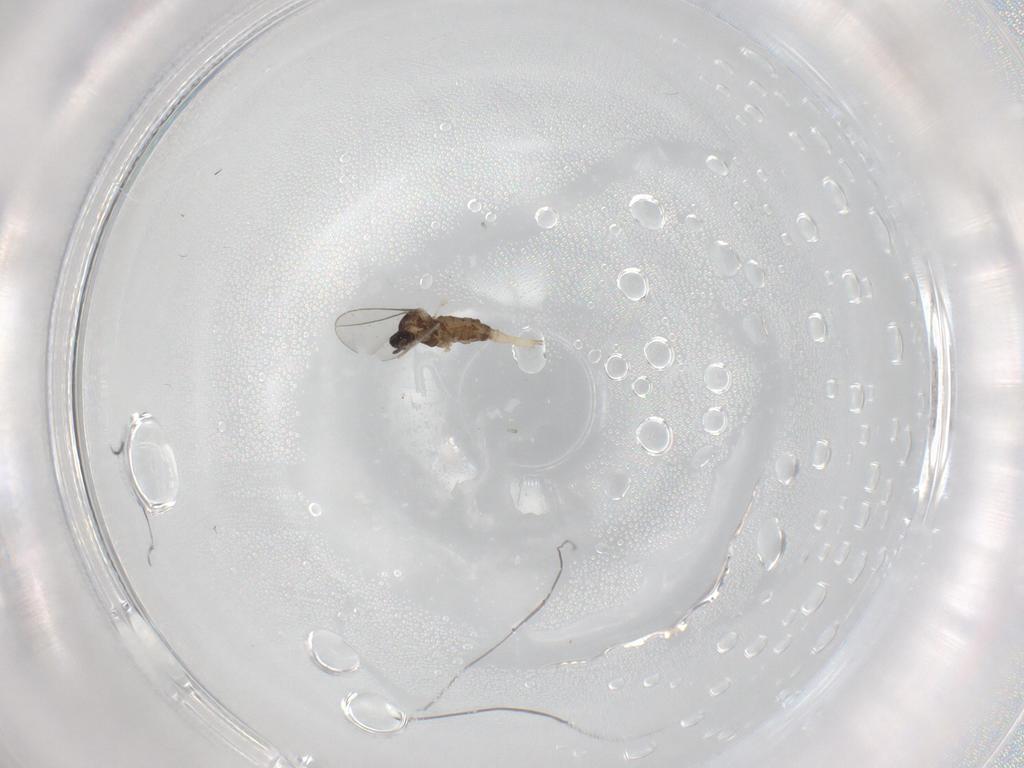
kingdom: Animalia
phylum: Arthropoda
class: Insecta
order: Diptera
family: Cecidomyiidae
